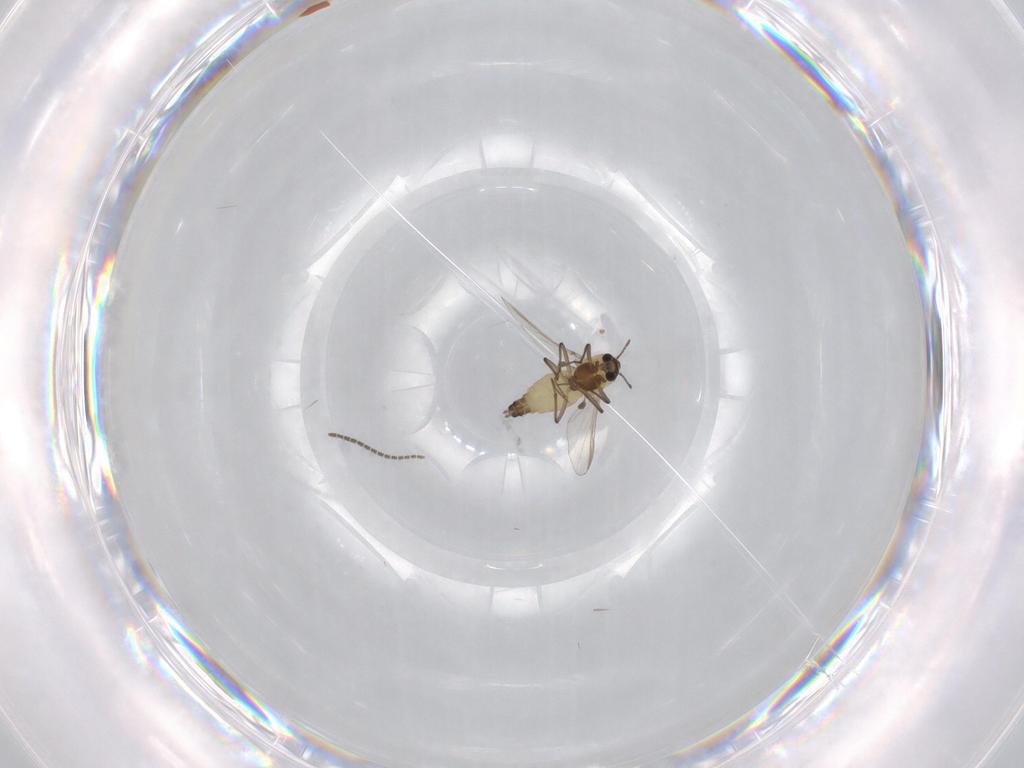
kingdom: Animalia
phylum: Arthropoda
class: Insecta
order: Diptera
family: Chironomidae
